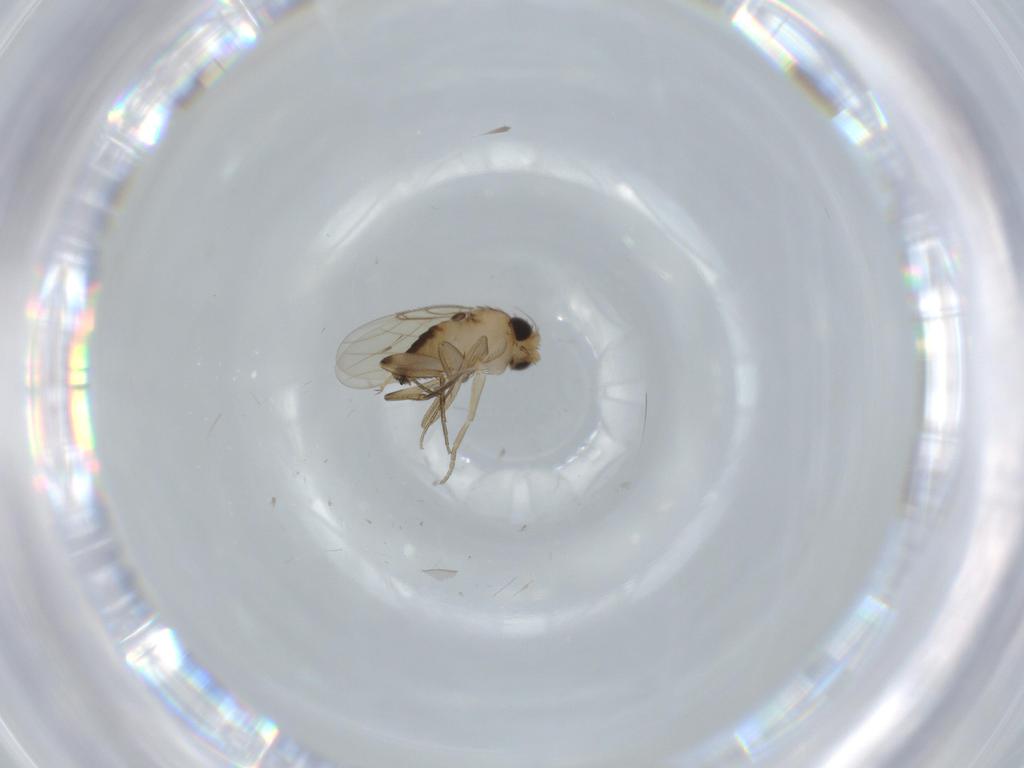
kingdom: Animalia
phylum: Arthropoda
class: Insecta
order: Diptera
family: Phoridae
